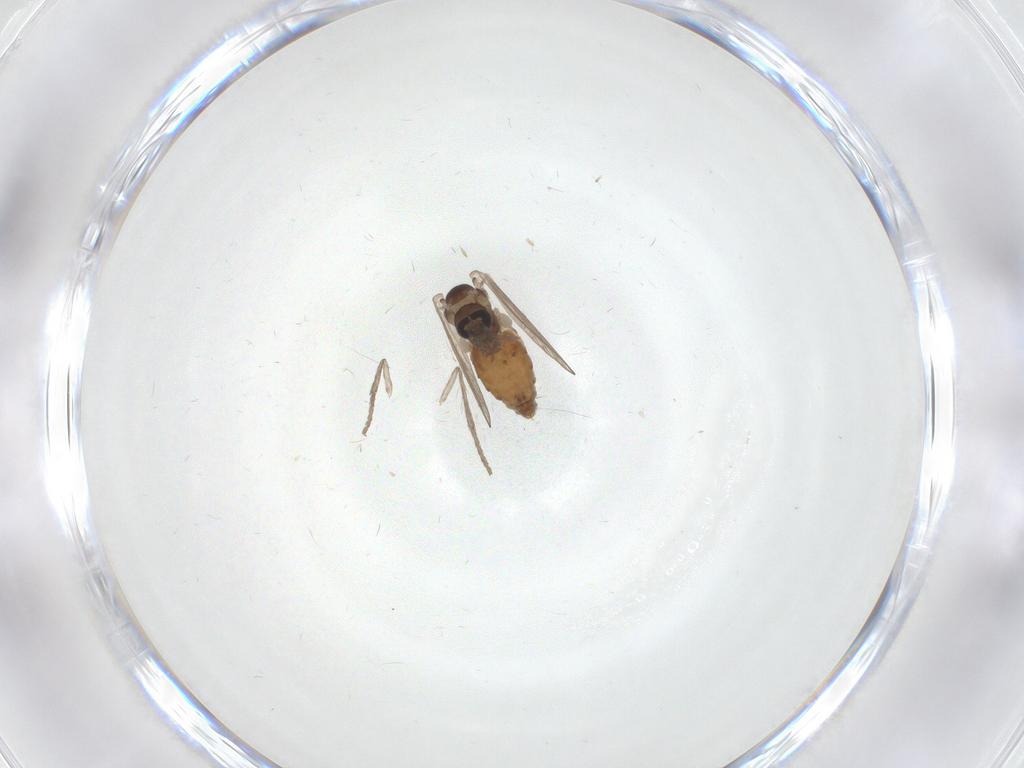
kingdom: Animalia
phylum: Arthropoda
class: Insecta
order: Diptera
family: Psychodidae
